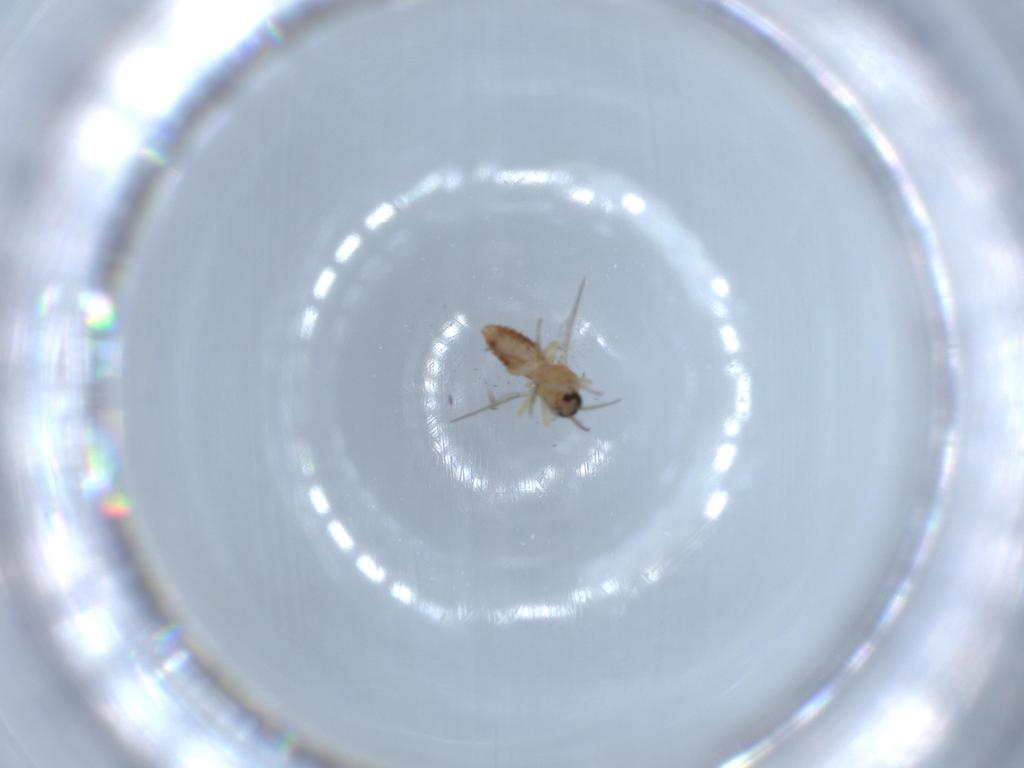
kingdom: Animalia
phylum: Arthropoda
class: Insecta
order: Diptera
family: Ceratopogonidae
